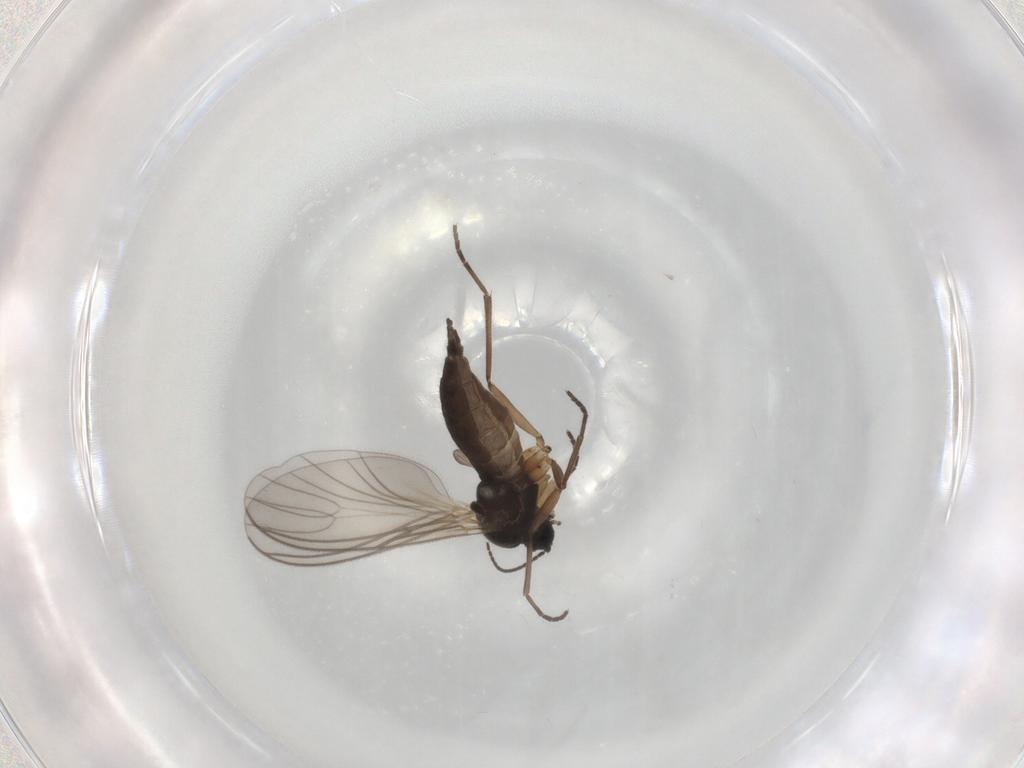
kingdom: Animalia
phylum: Arthropoda
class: Insecta
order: Diptera
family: Sciaridae
